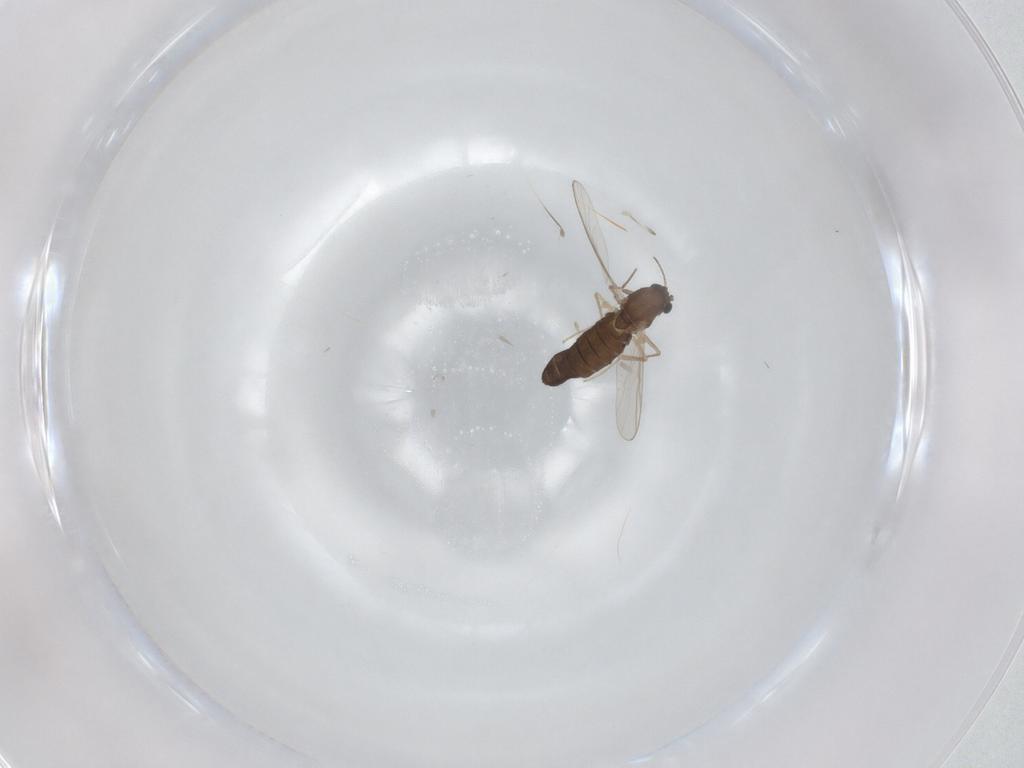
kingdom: Animalia
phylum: Arthropoda
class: Insecta
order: Diptera
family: Chironomidae
